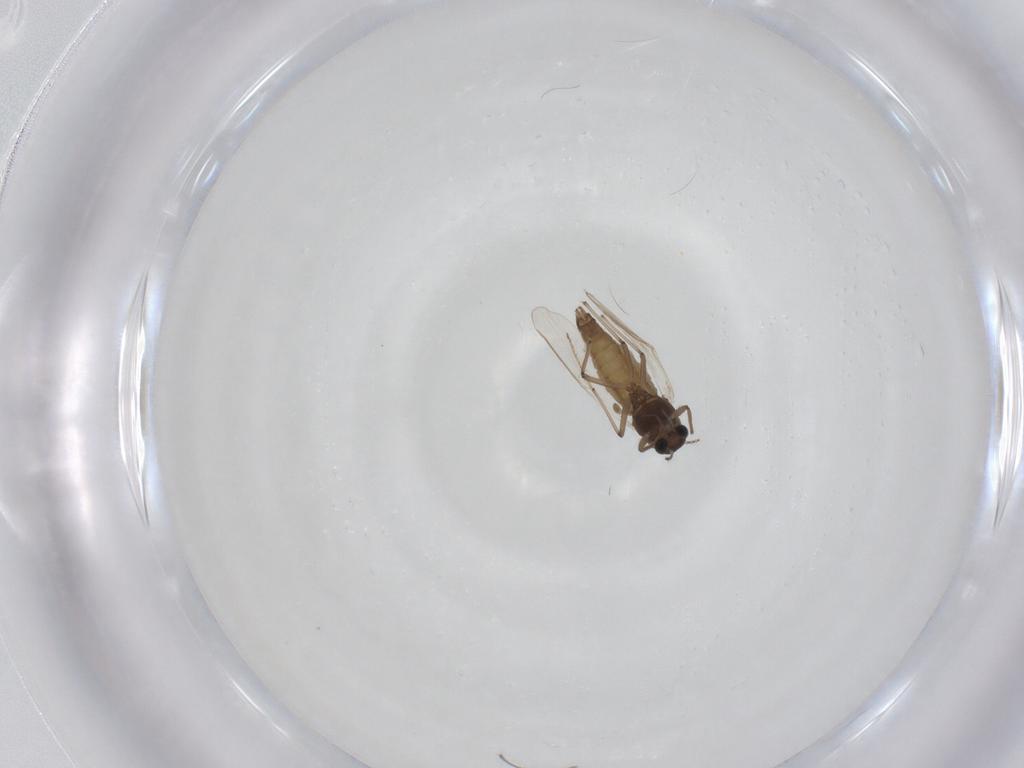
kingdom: Animalia
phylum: Arthropoda
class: Insecta
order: Diptera
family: Chironomidae
